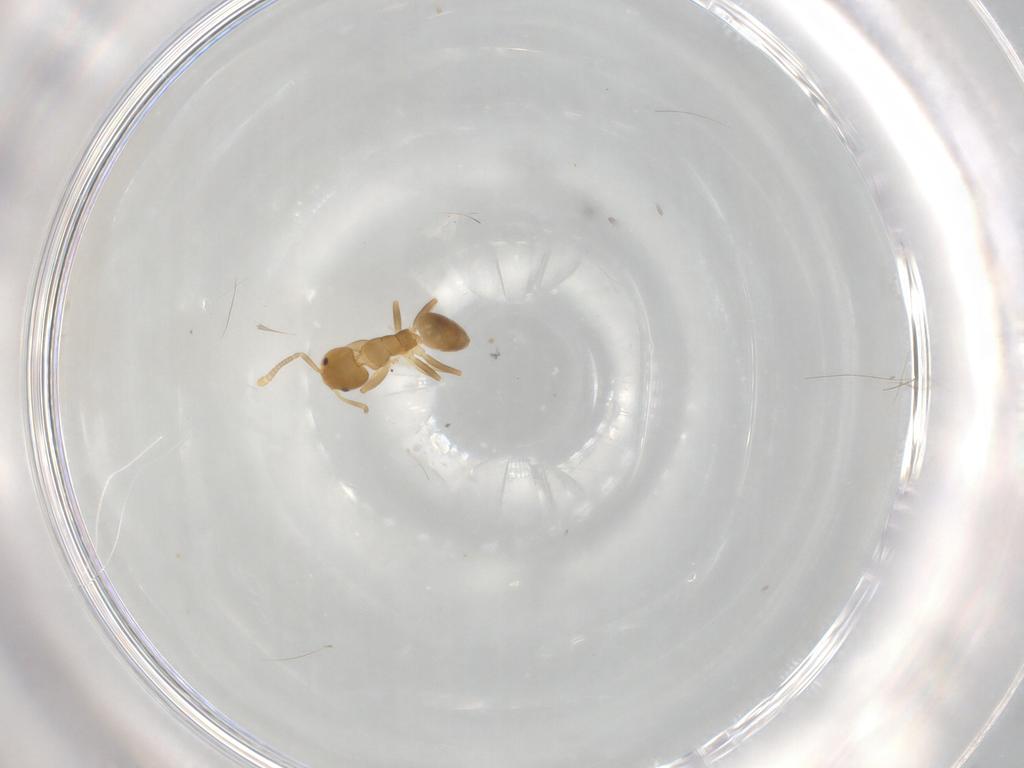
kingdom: Animalia
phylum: Arthropoda
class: Insecta
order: Hymenoptera
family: Formicidae
